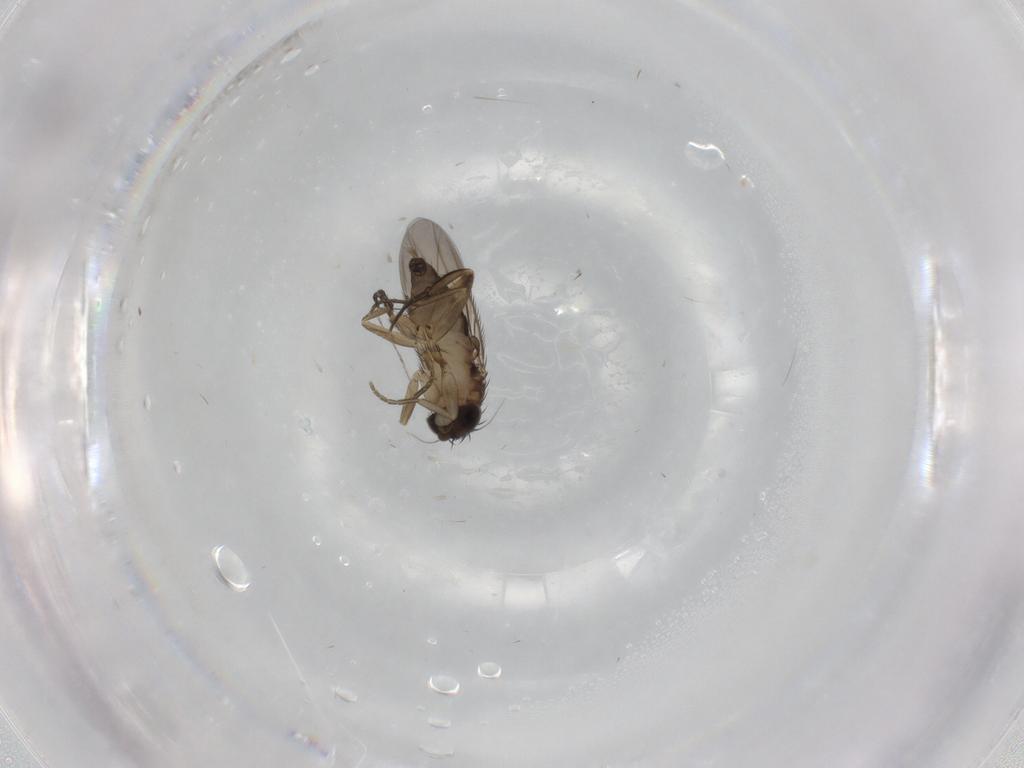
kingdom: Animalia
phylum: Arthropoda
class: Insecta
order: Diptera
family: Phoridae
